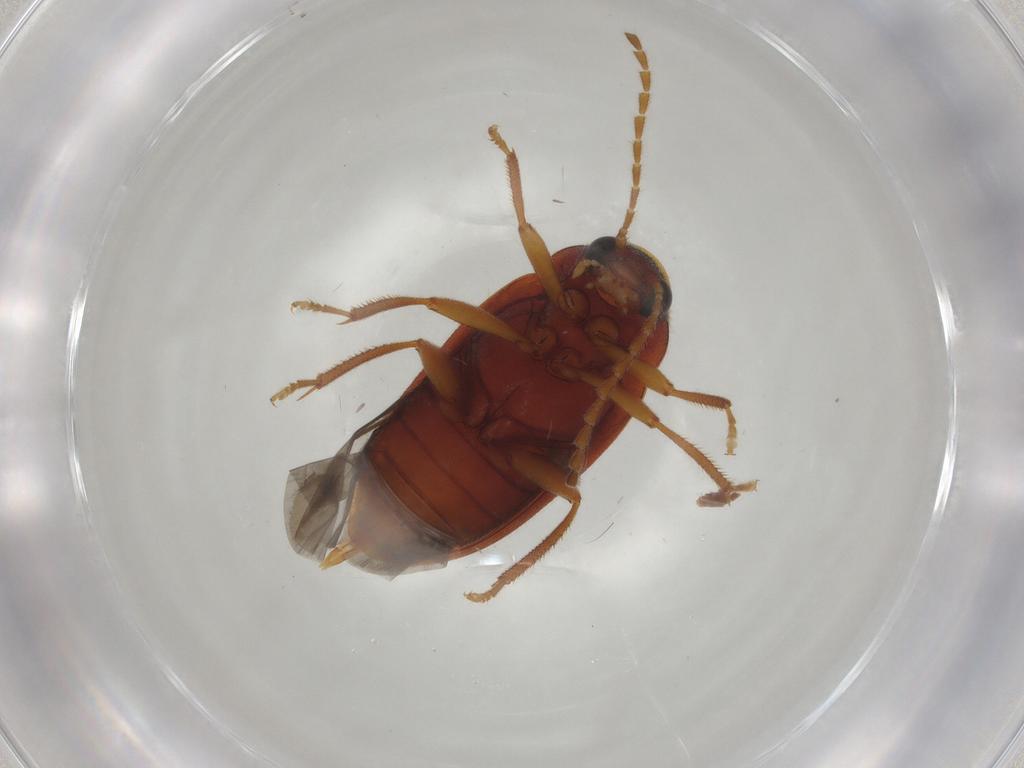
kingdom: Animalia
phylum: Arthropoda
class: Insecta
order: Coleoptera
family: Ptilodactylidae
